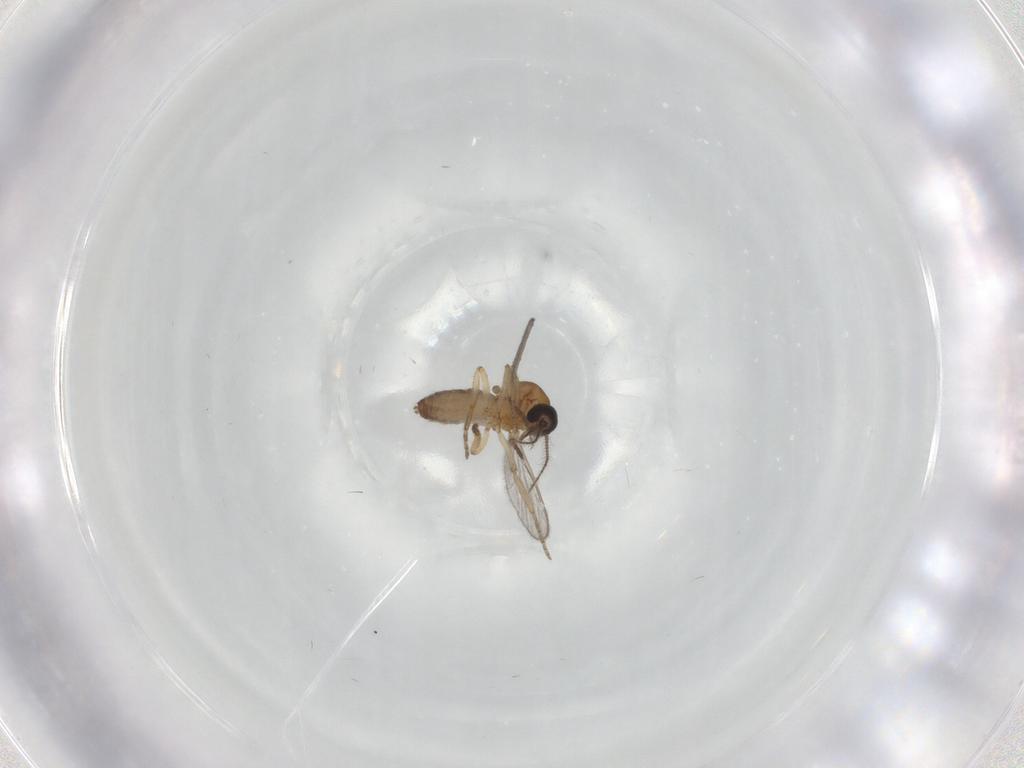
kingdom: Animalia
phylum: Arthropoda
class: Insecta
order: Diptera
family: Ceratopogonidae
